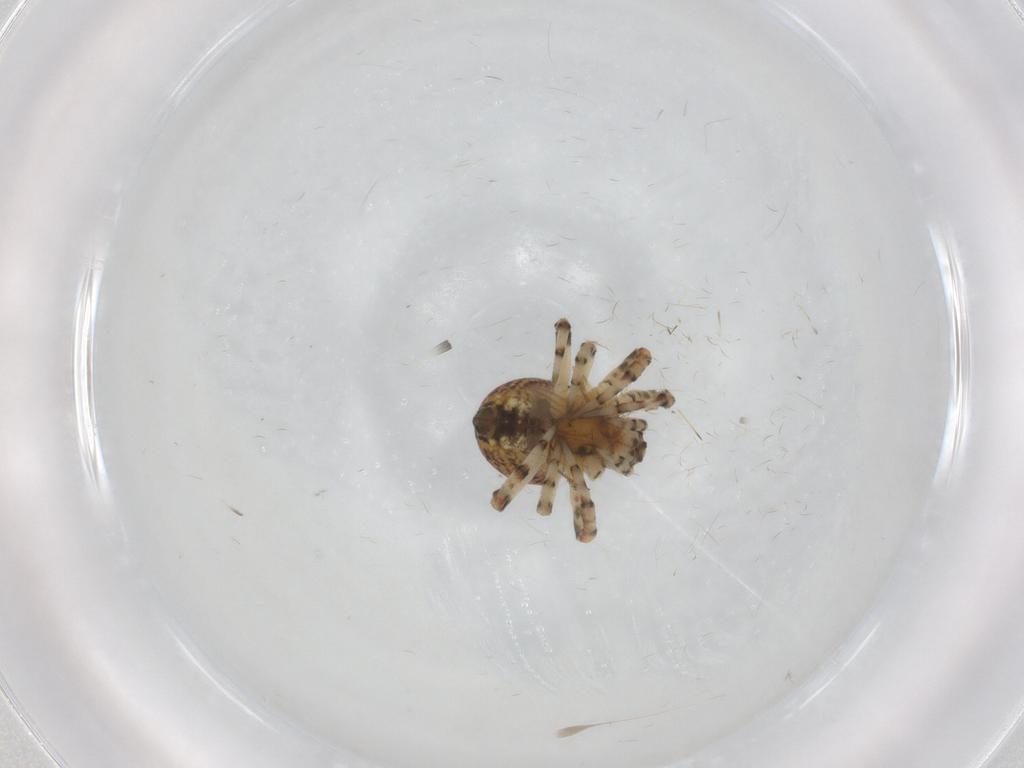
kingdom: Animalia
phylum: Arthropoda
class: Arachnida
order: Araneae
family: Araneidae
